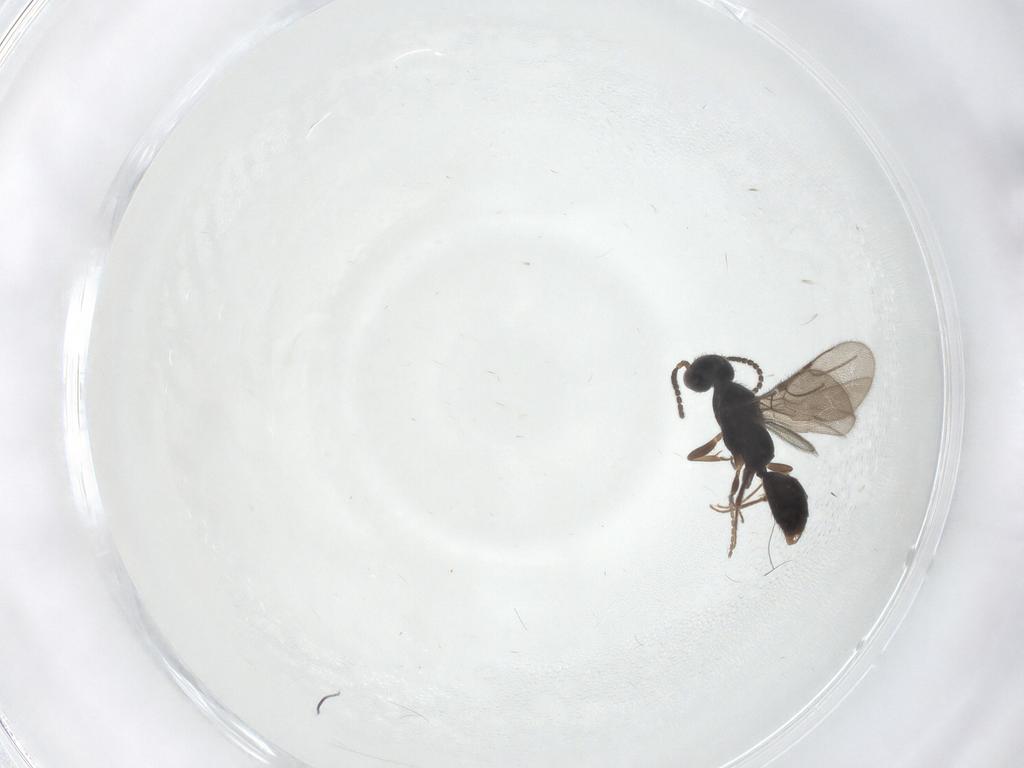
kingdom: Animalia
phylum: Arthropoda
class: Insecta
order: Hymenoptera
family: Bethylidae
